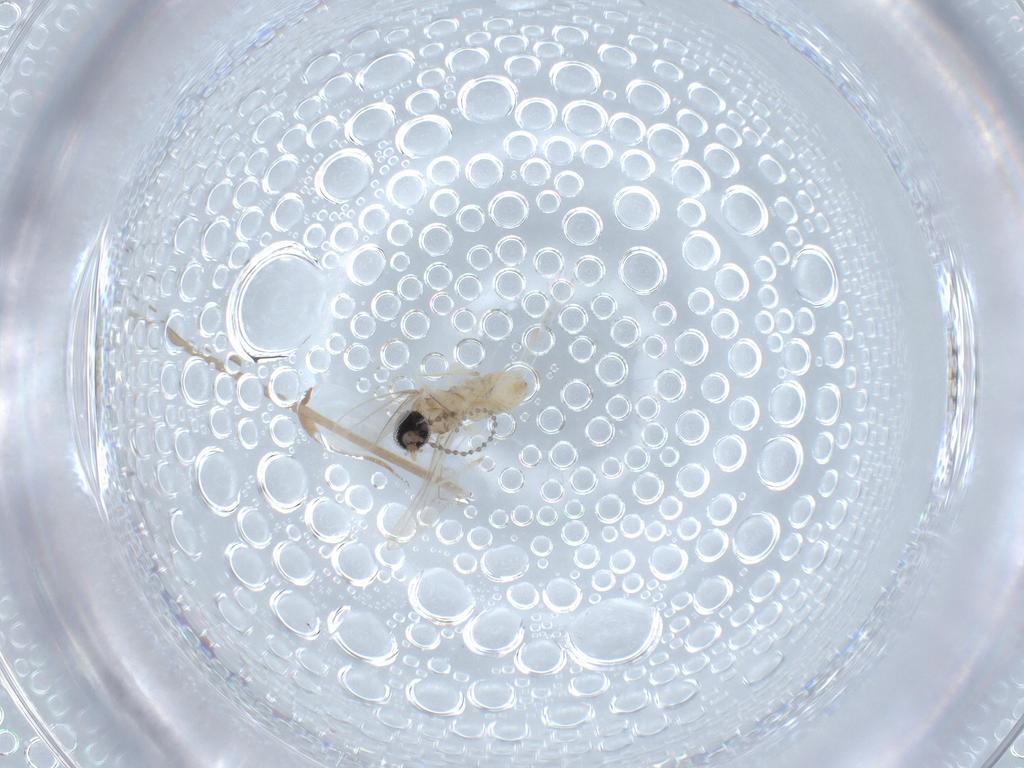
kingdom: Animalia
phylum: Arthropoda
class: Insecta
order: Diptera
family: Cecidomyiidae
